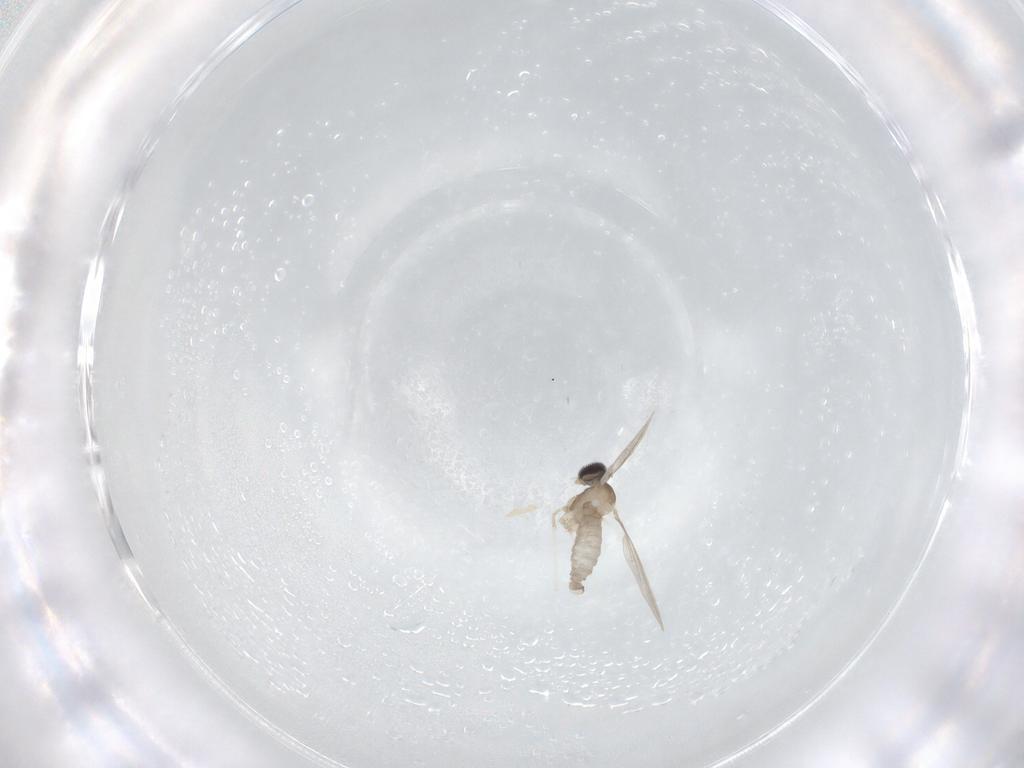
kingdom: Animalia
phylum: Arthropoda
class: Insecta
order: Diptera
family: Cecidomyiidae
